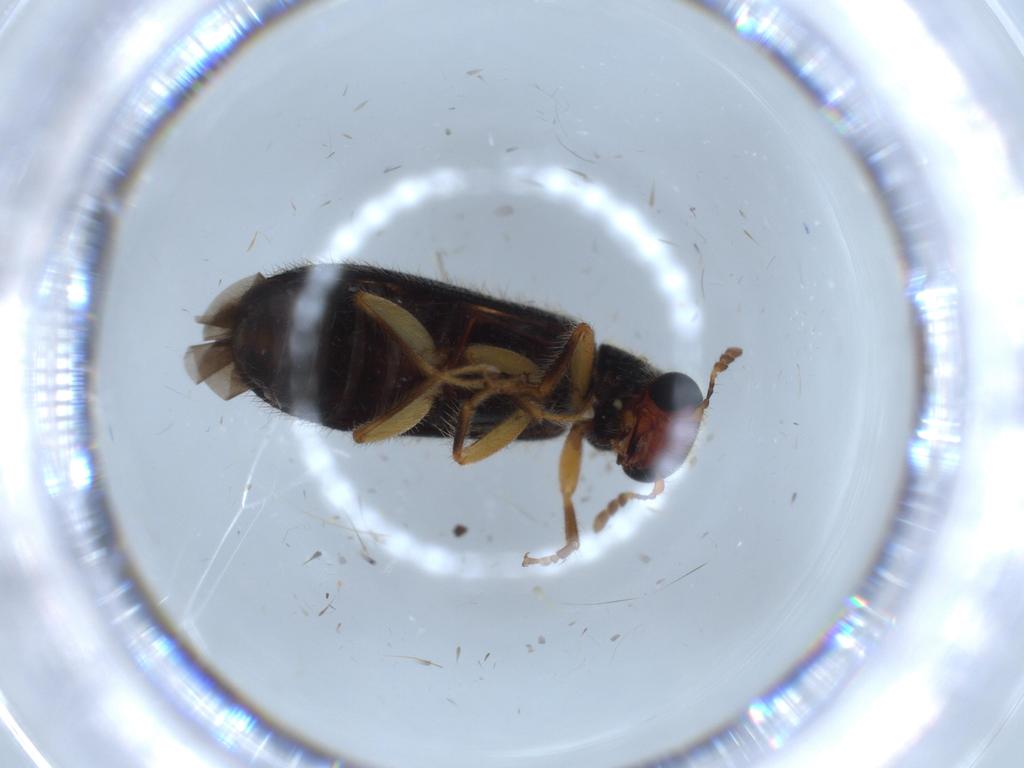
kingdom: Animalia
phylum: Arthropoda
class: Insecta
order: Coleoptera
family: Cleridae
